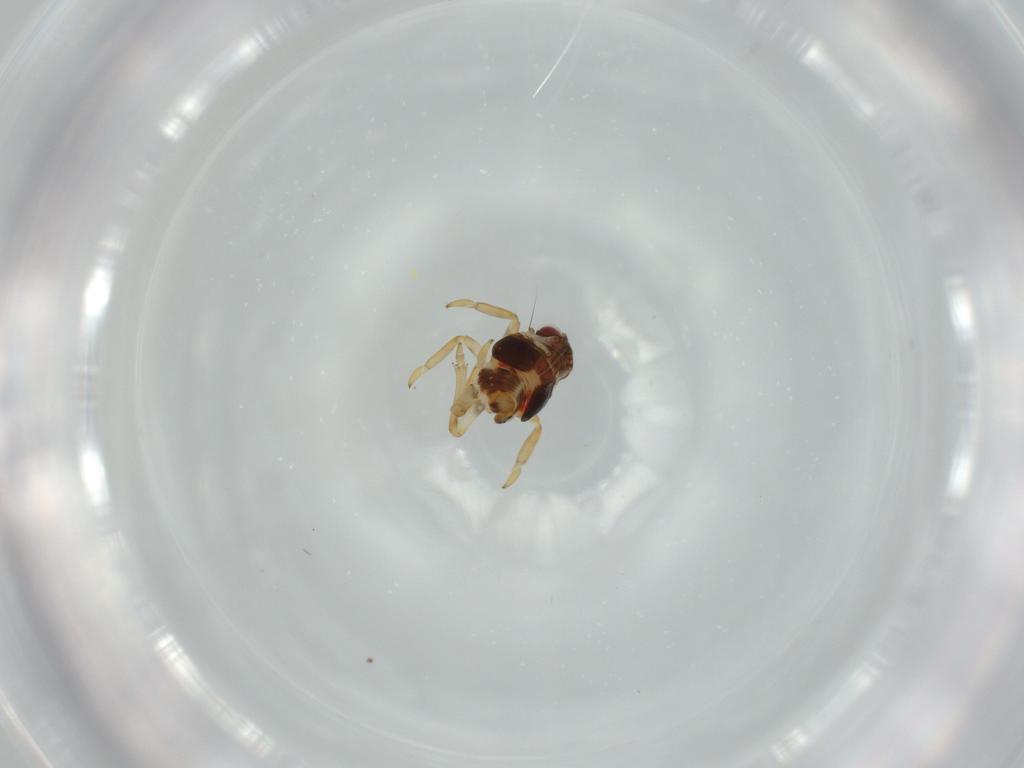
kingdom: Animalia
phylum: Arthropoda
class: Insecta
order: Hemiptera
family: Issidae
